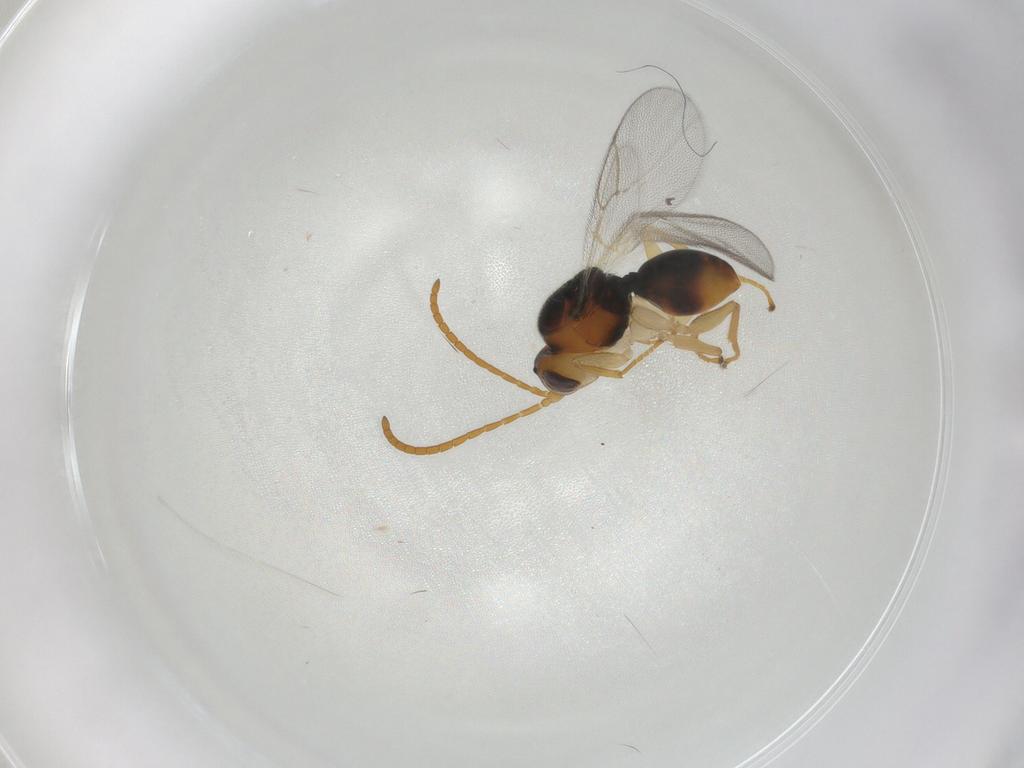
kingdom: Animalia
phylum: Arthropoda
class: Insecta
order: Hymenoptera
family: Cynipidae
